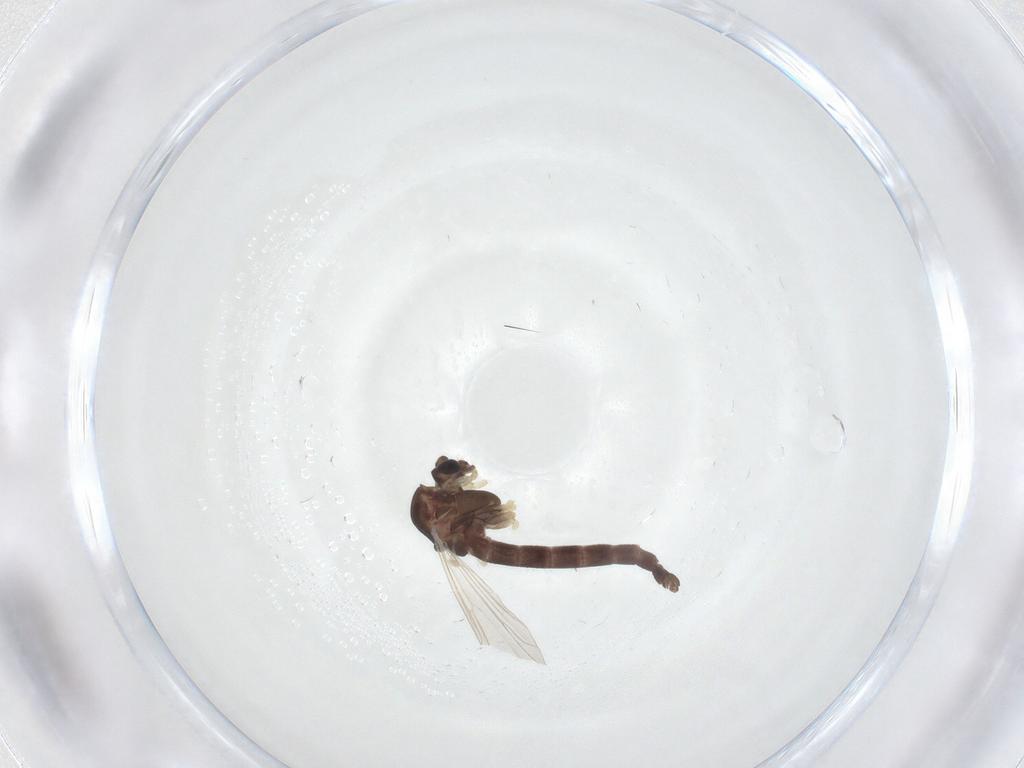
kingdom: Animalia
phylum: Arthropoda
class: Insecta
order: Diptera
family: Chironomidae
